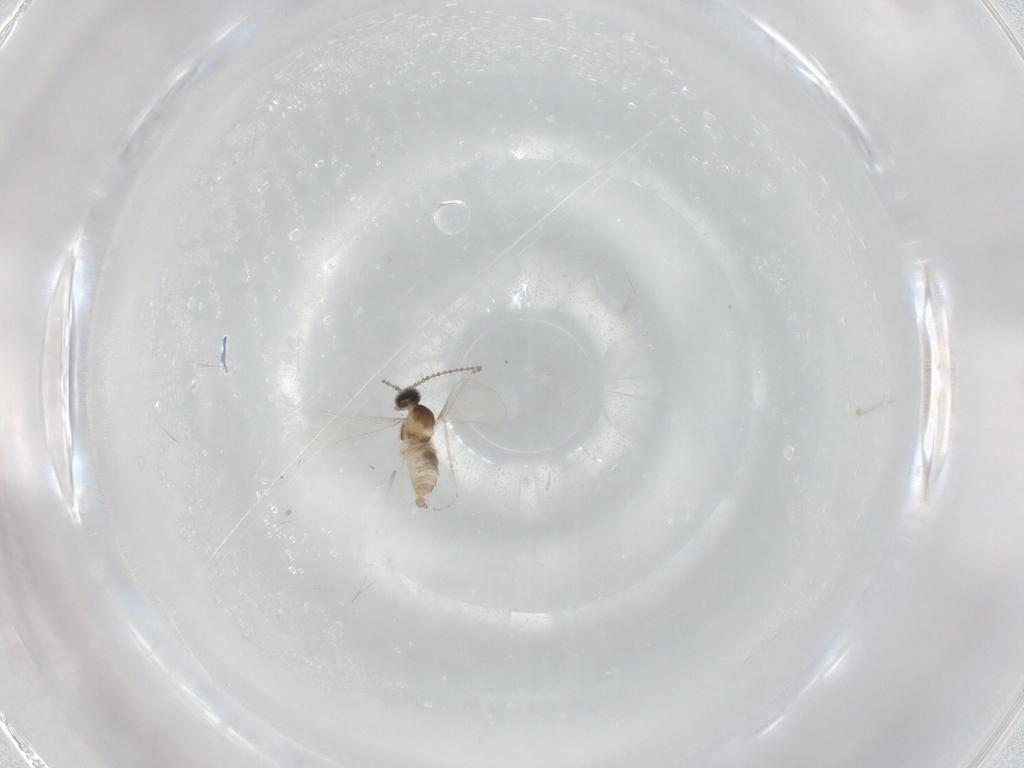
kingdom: Animalia
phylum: Arthropoda
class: Insecta
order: Diptera
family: Cecidomyiidae
